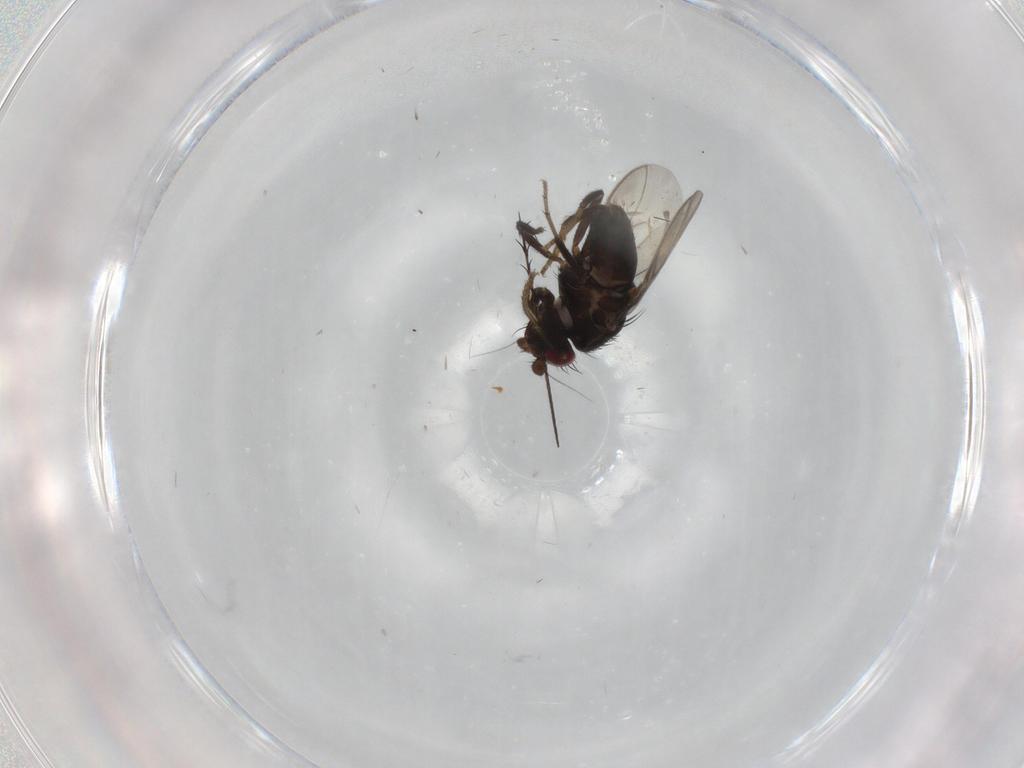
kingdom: Animalia
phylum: Arthropoda
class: Insecta
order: Diptera
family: Sphaeroceridae
